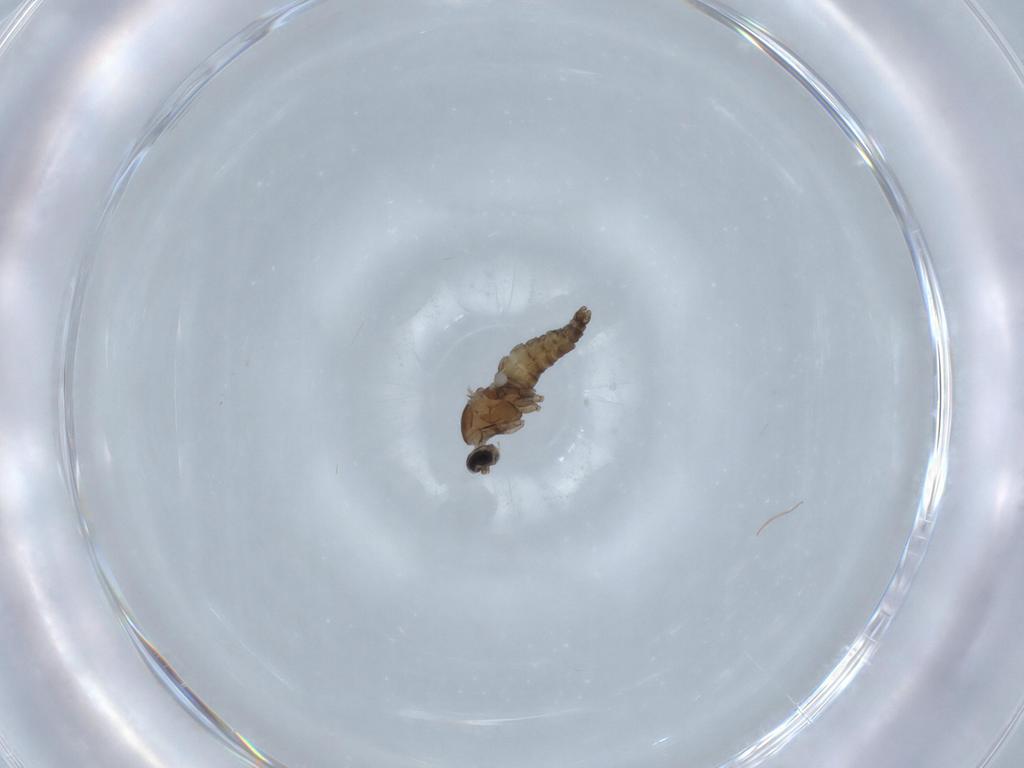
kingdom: Animalia
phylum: Arthropoda
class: Insecta
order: Diptera
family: Cecidomyiidae
